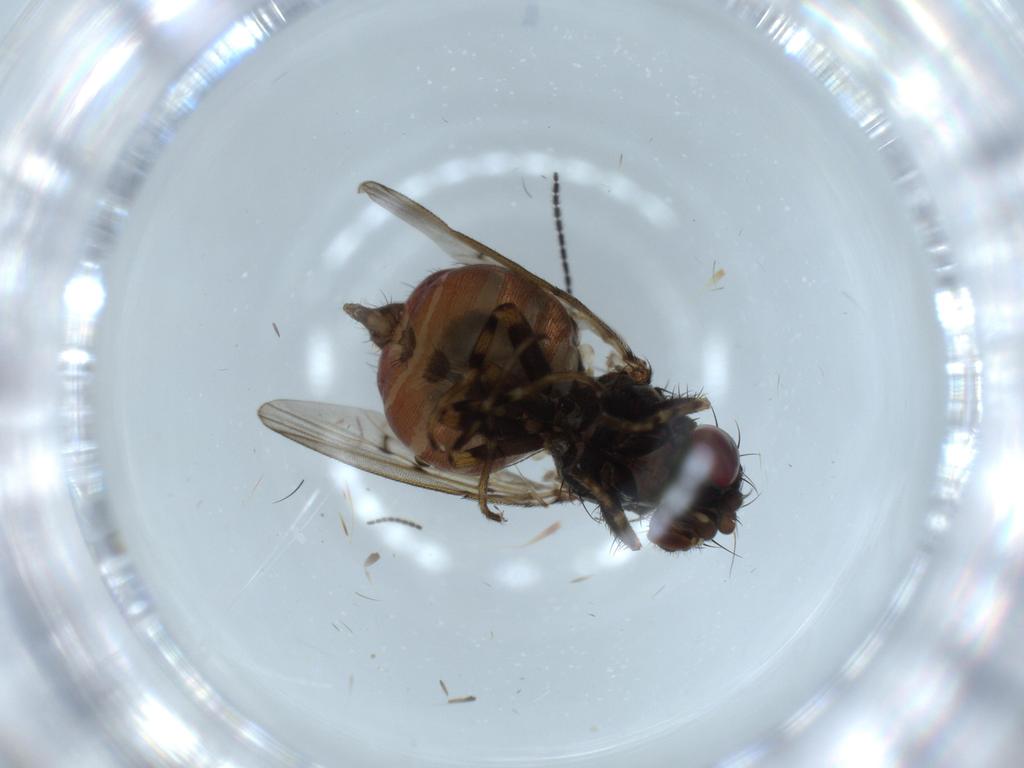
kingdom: Animalia
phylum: Arthropoda
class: Insecta
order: Diptera
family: Odiniidae
